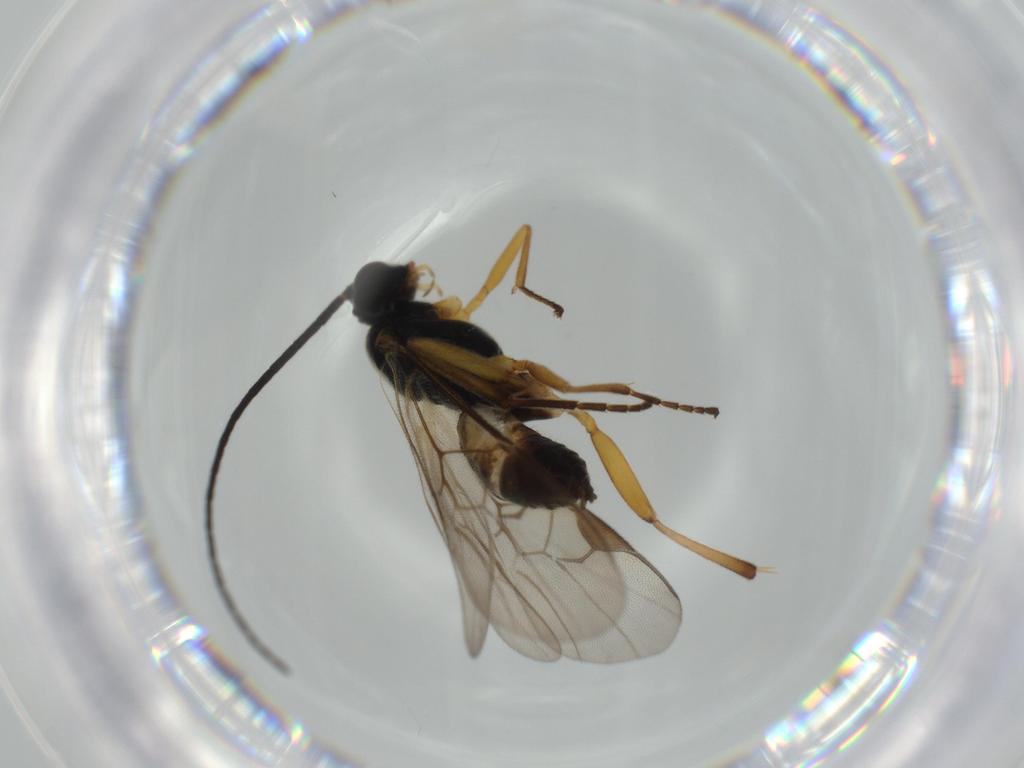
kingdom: Animalia
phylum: Arthropoda
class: Insecta
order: Hymenoptera
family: Diapriidae
